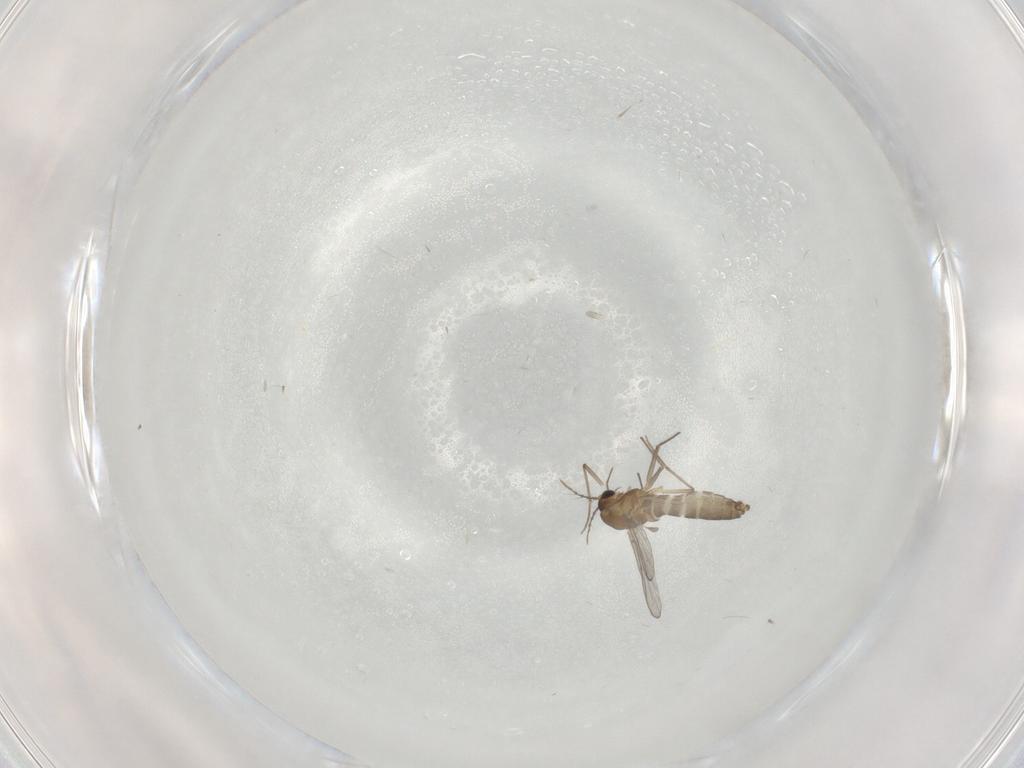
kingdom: Animalia
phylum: Arthropoda
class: Insecta
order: Diptera
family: Chironomidae
